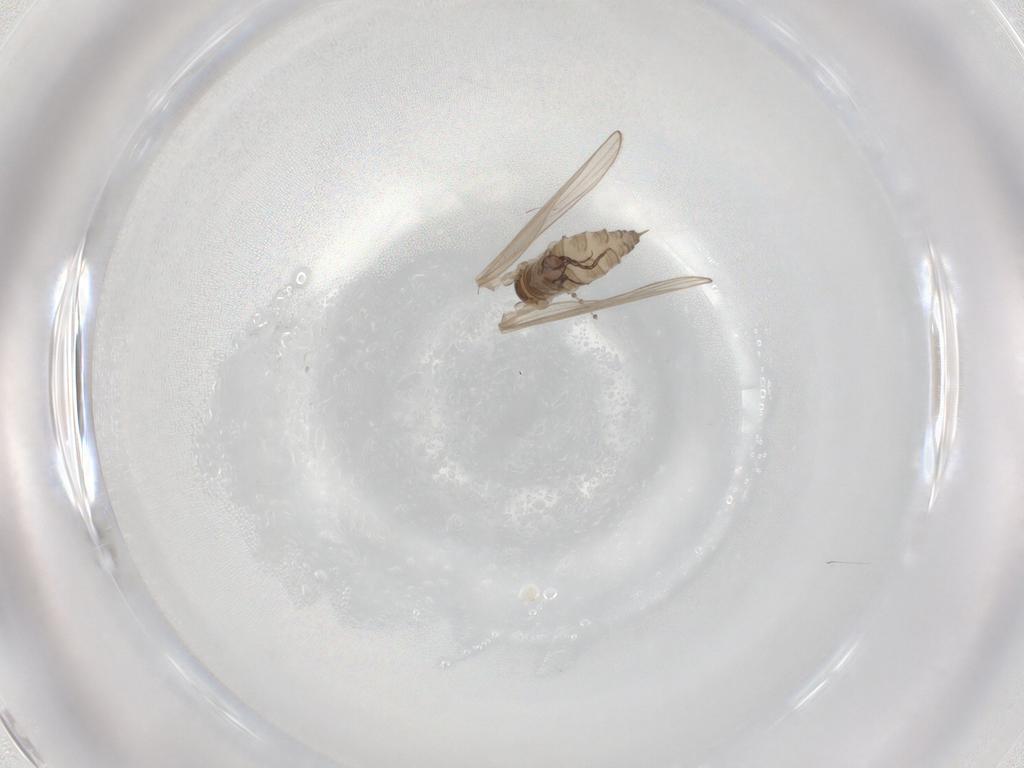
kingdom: Animalia
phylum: Arthropoda
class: Insecta
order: Diptera
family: Psychodidae
